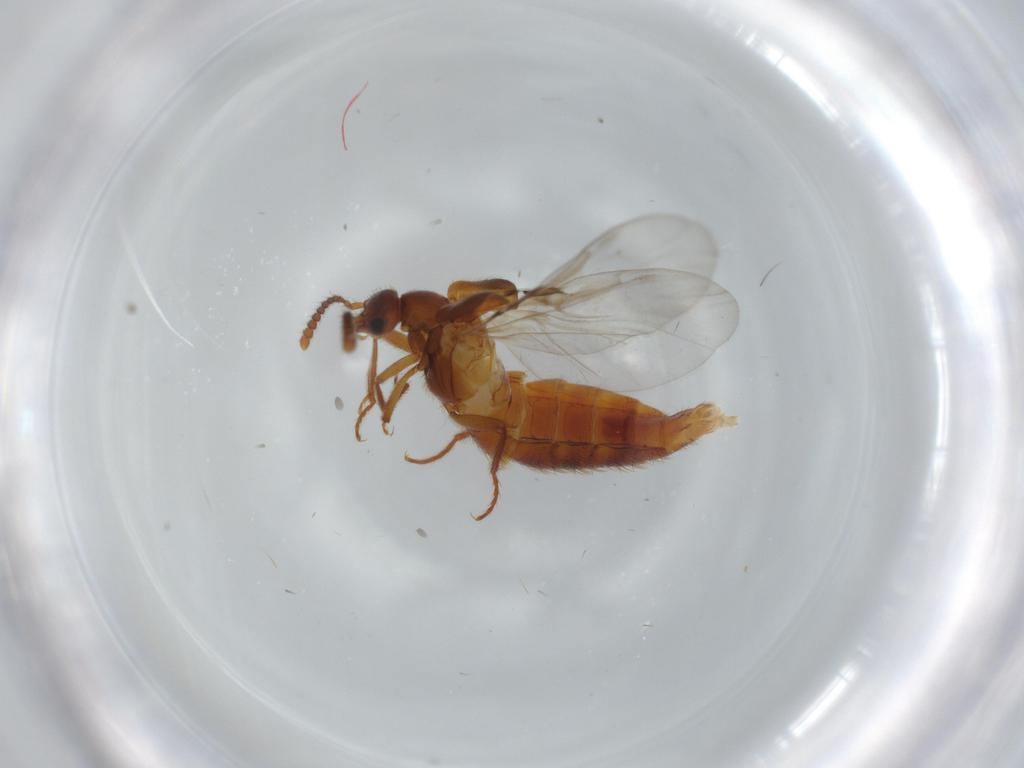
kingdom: Animalia
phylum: Arthropoda
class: Insecta
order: Coleoptera
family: Staphylinidae
